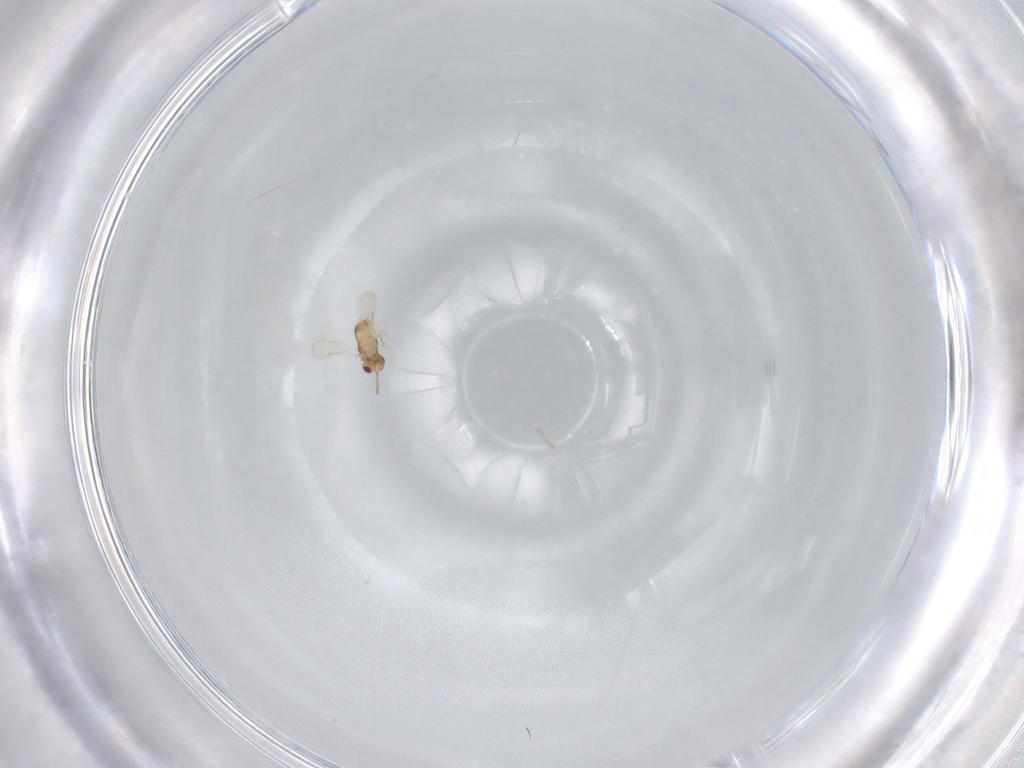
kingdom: Animalia
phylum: Arthropoda
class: Insecta
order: Hymenoptera
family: Aphelinidae
